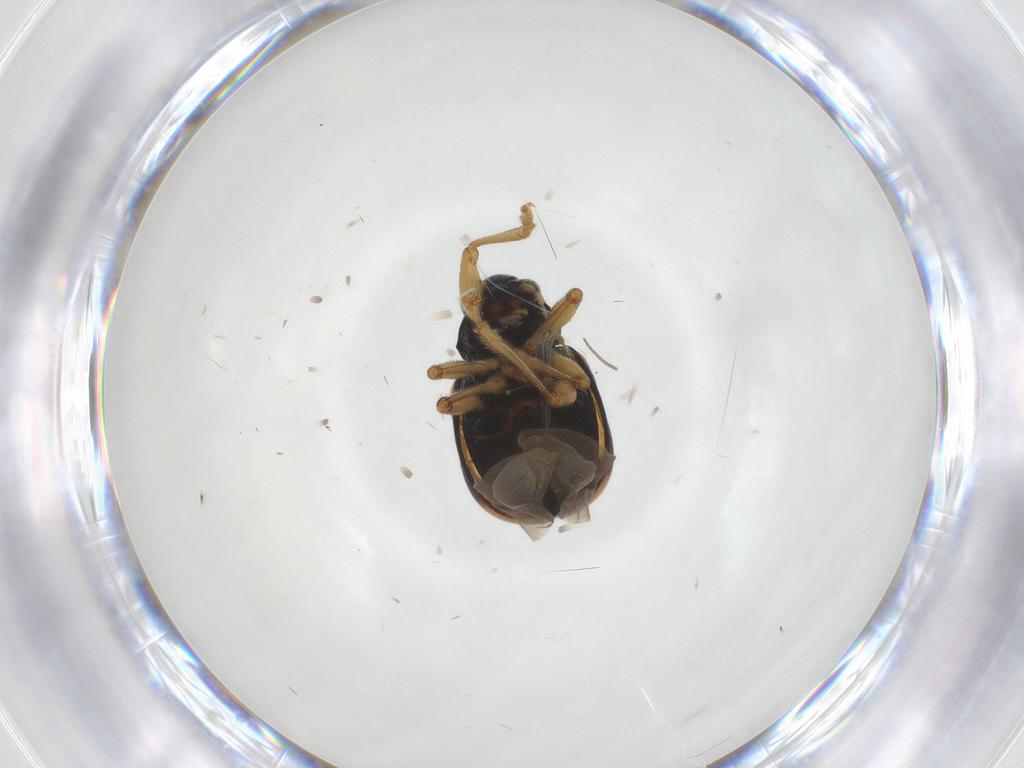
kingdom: Animalia
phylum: Arthropoda
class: Insecta
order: Coleoptera
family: Chrysomelidae
